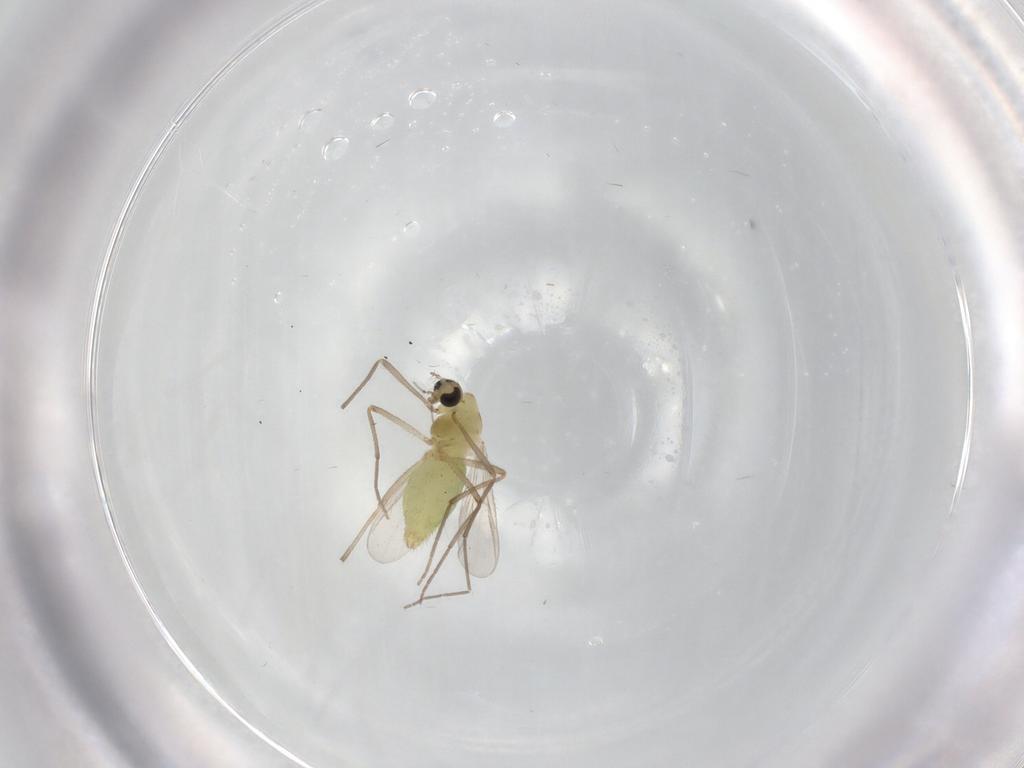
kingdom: Animalia
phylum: Arthropoda
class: Insecta
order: Diptera
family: Chironomidae
